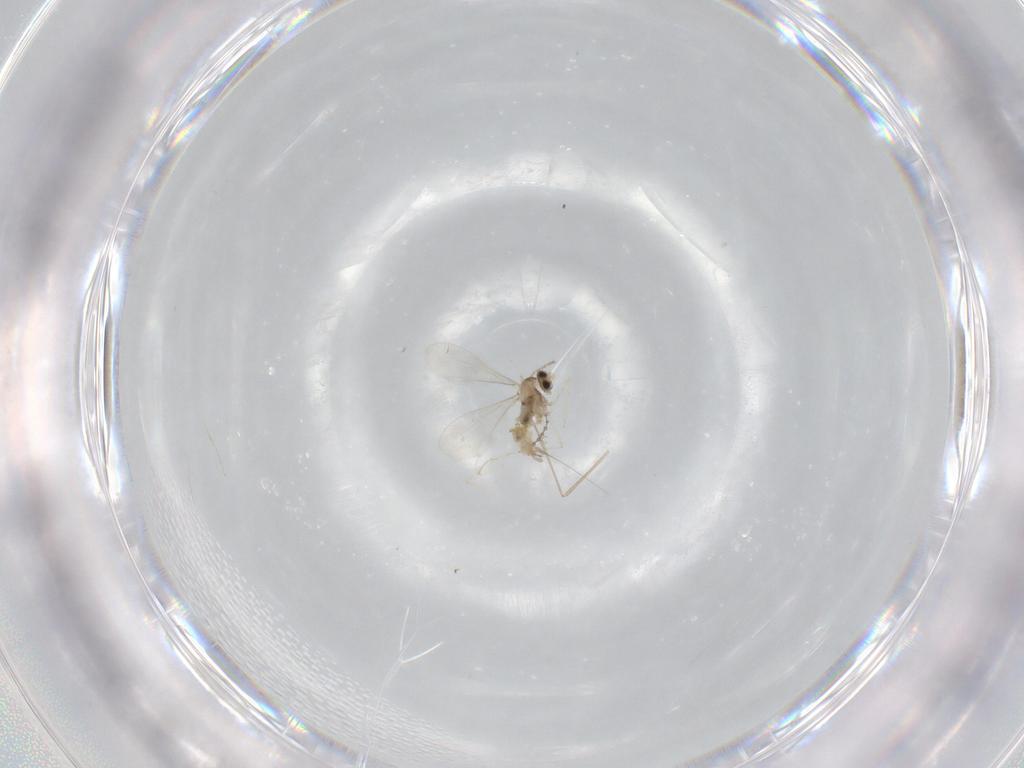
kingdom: Animalia
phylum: Arthropoda
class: Insecta
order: Diptera
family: Cecidomyiidae
